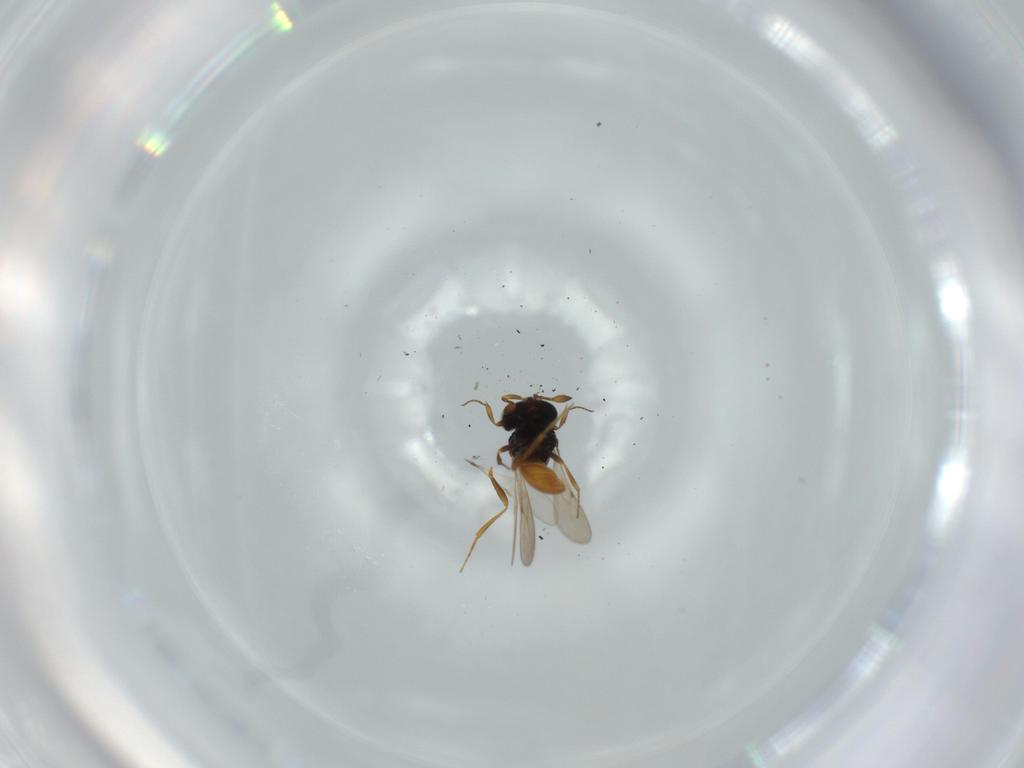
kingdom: Animalia
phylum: Arthropoda
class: Insecta
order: Hymenoptera
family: Scelionidae
